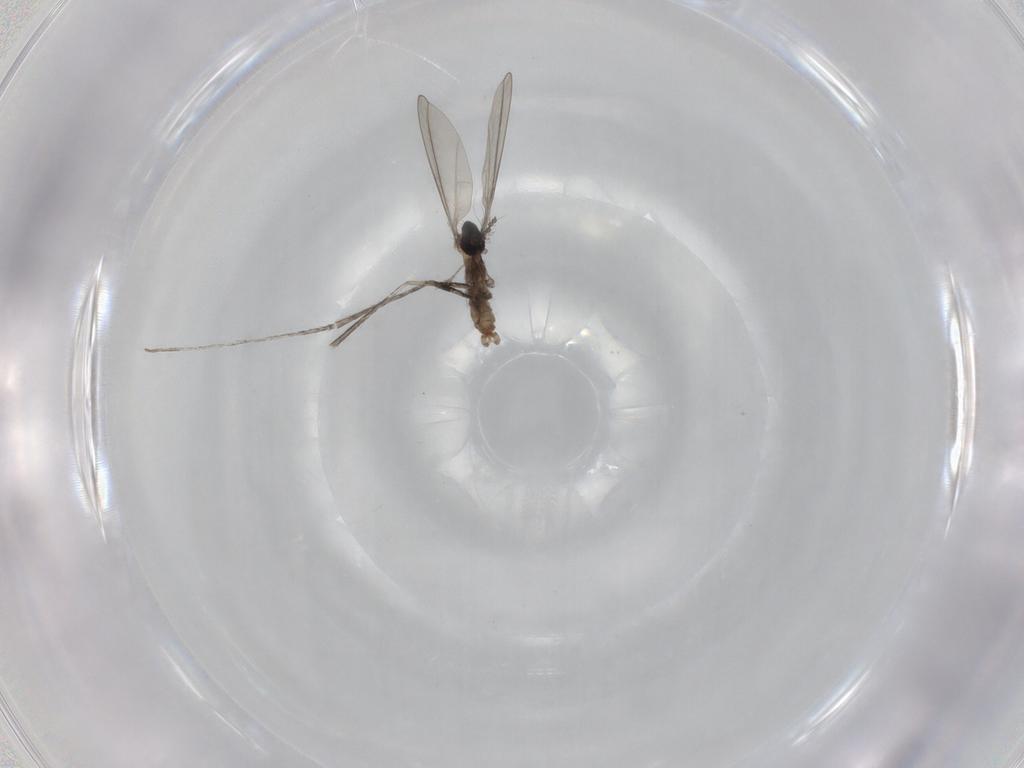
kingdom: Animalia
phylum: Arthropoda
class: Insecta
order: Diptera
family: Cecidomyiidae
